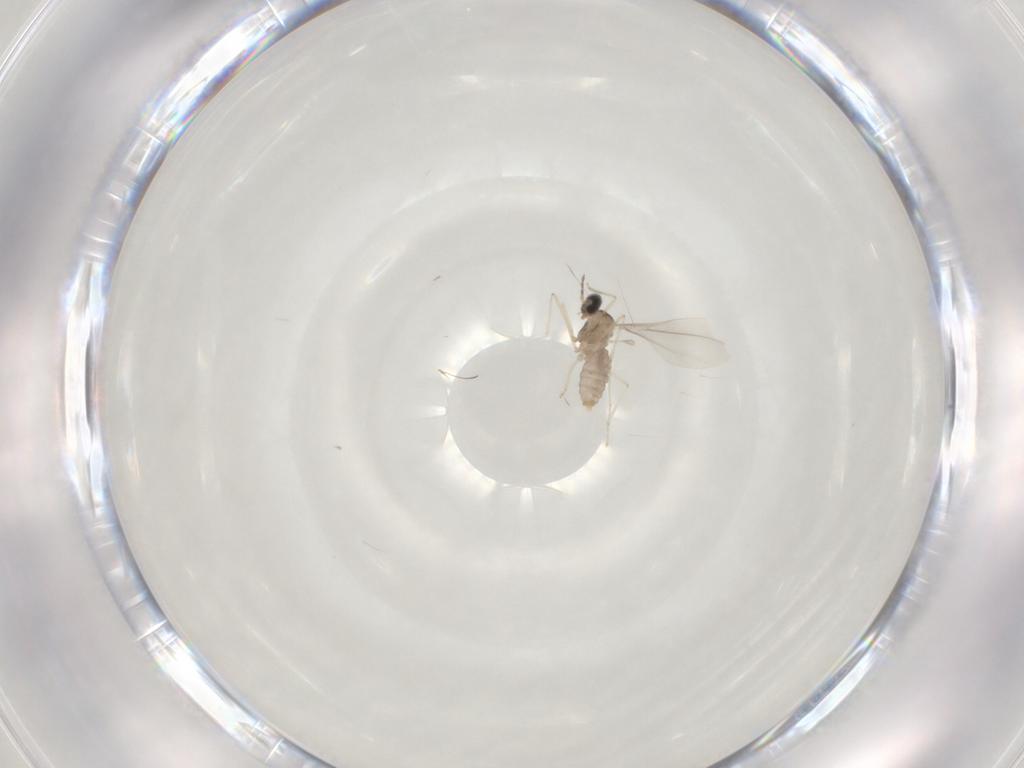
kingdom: Animalia
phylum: Arthropoda
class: Insecta
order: Diptera
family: Cecidomyiidae
